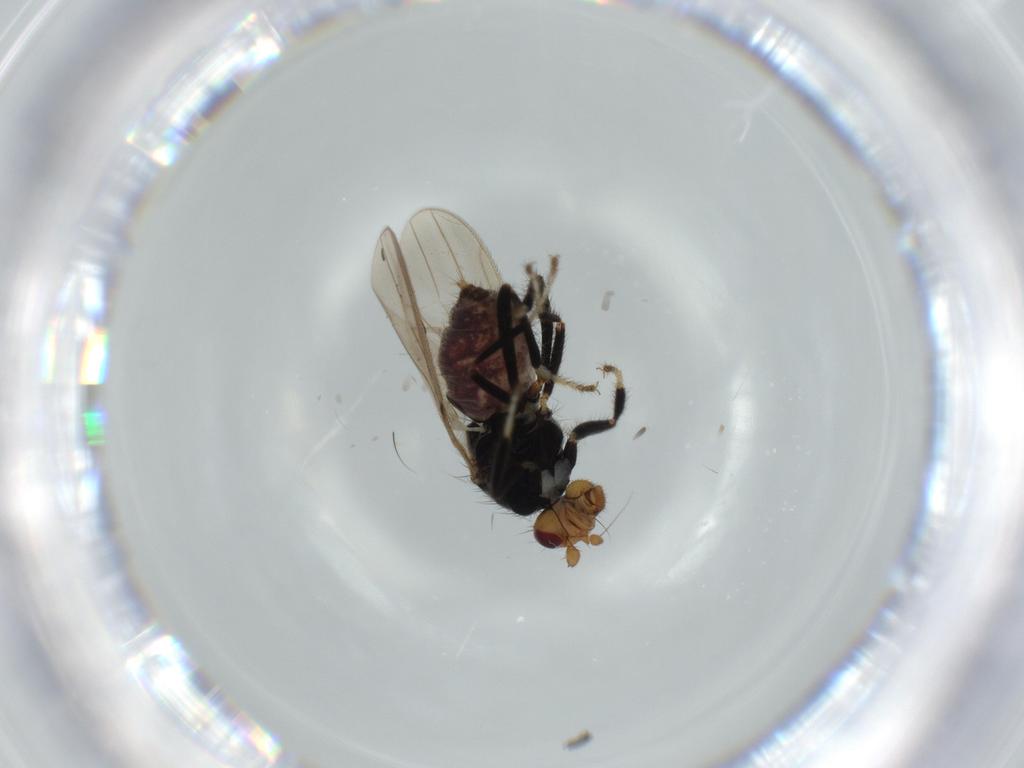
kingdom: Animalia
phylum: Arthropoda
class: Insecta
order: Diptera
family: Sphaeroceridae
